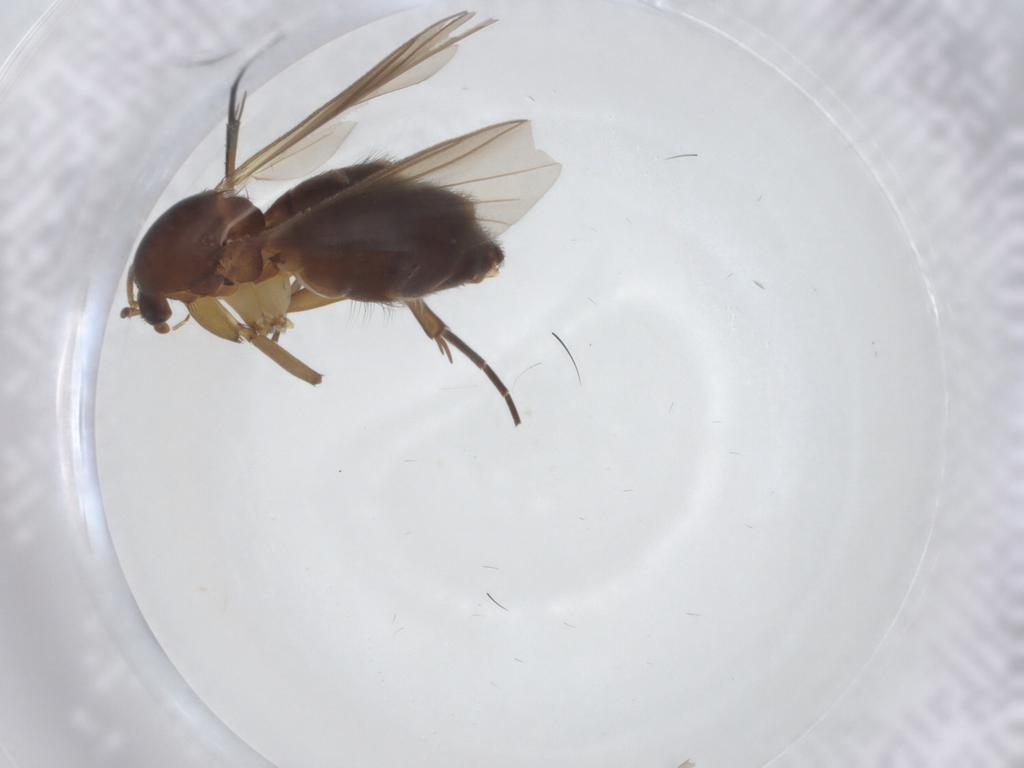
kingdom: Animalia
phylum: Arthropoda
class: Insecta
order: Diptera
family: Mycetophilidae
